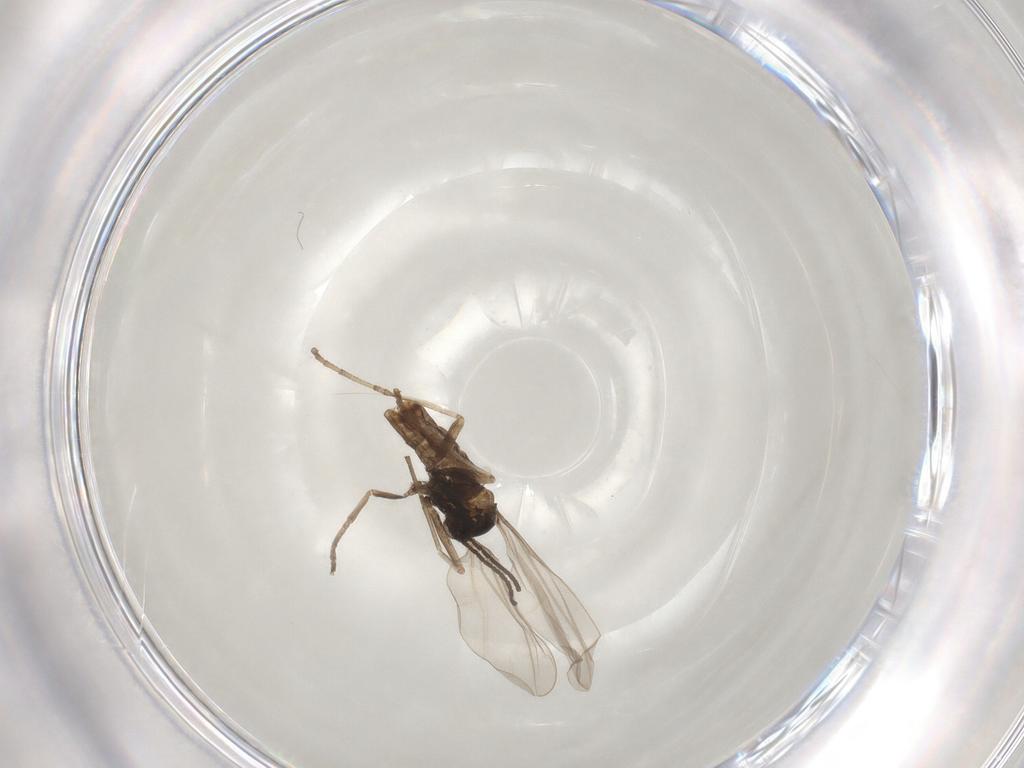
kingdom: Animalia
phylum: Arthropoda
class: Insecta
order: Diptera
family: Cecidomyiidae
